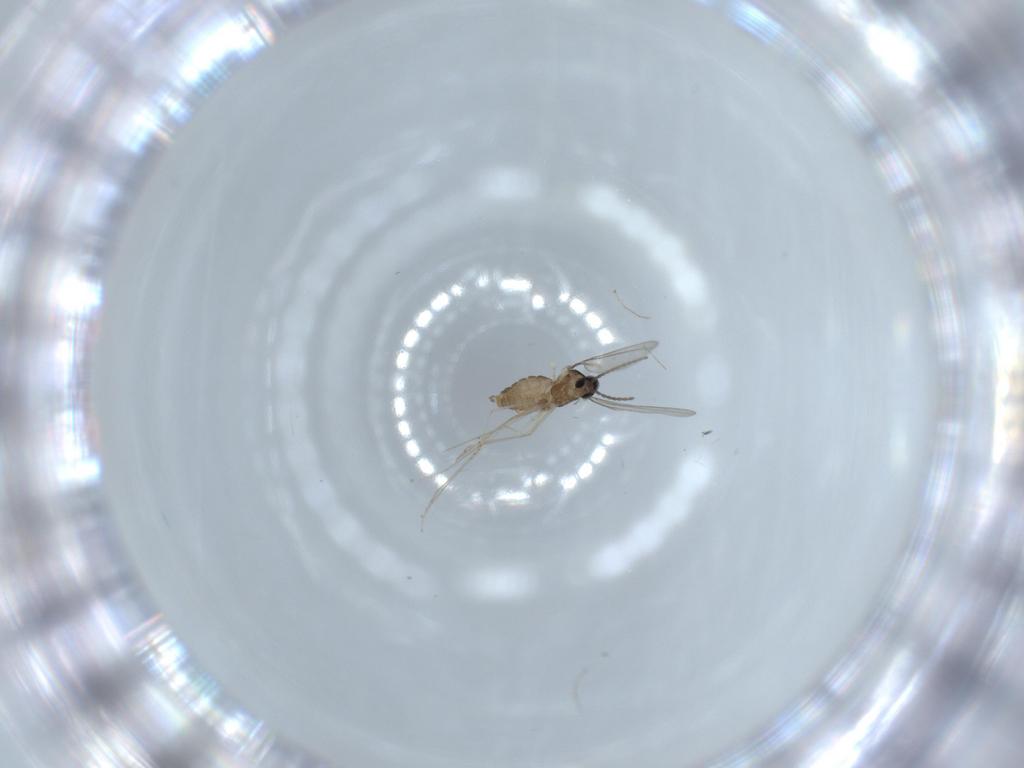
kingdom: Animalia
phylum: Arthropoda
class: Insecta
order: Diptera
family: Cecidomyiidae
